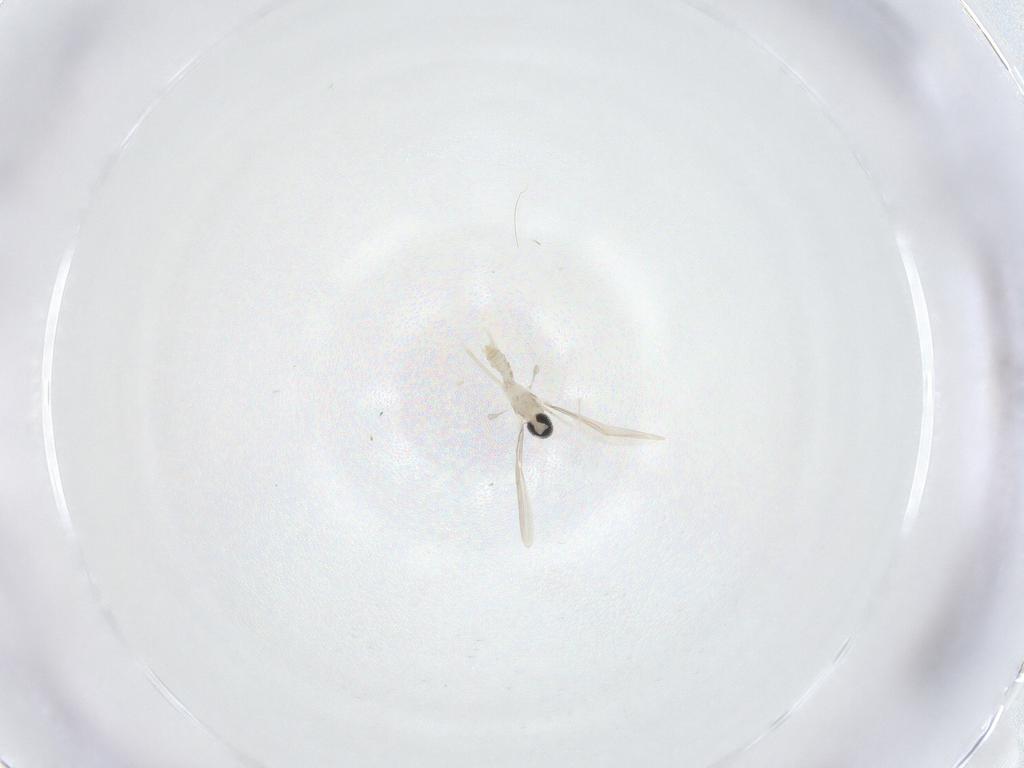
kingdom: Animalia
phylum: Arthropoda
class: Insecta
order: Diptera
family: Cecidomyiidae
